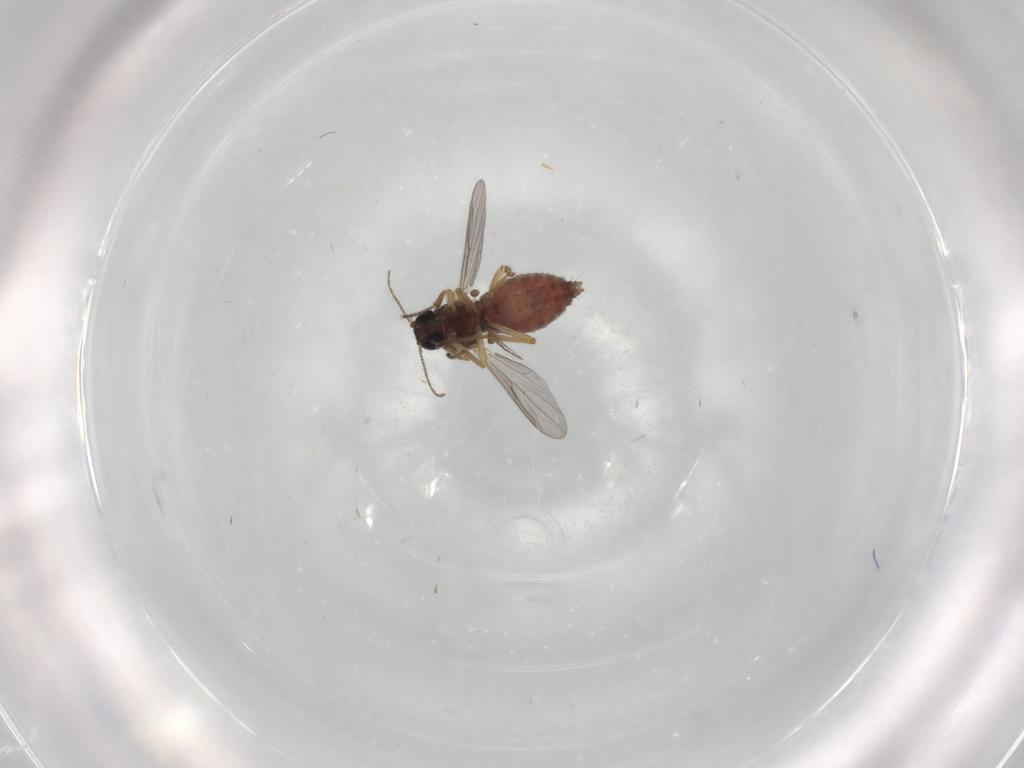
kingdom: Animalia
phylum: Arthropoda
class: Insecta
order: Diptera
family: Ceratopogonidae
